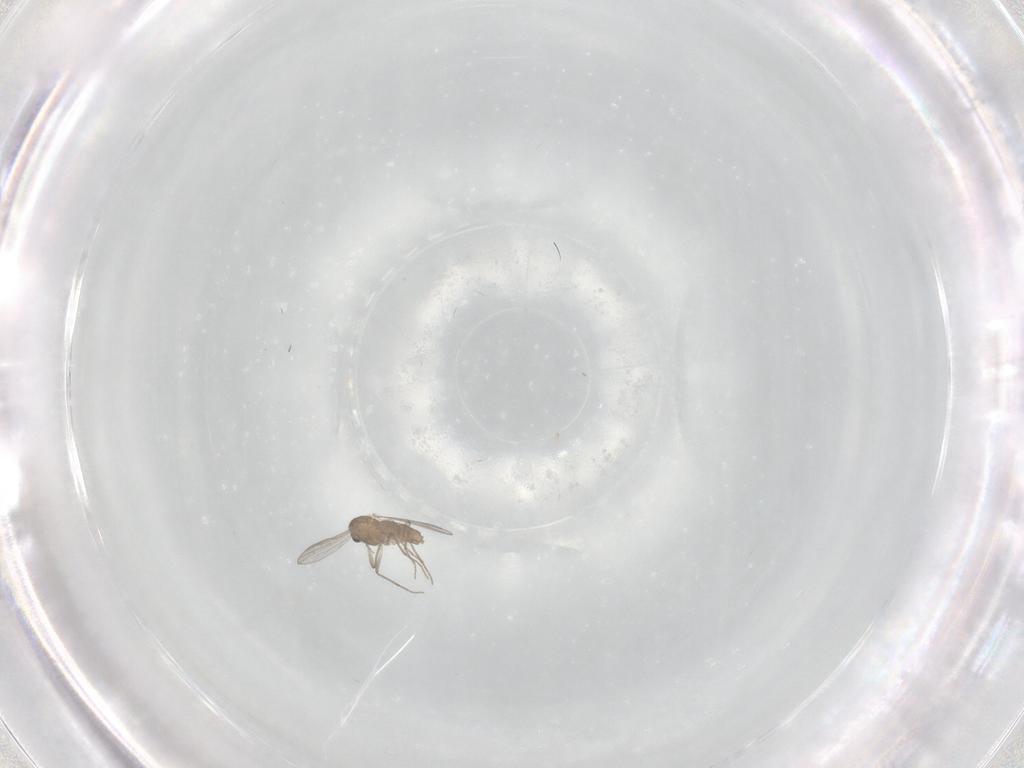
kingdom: Animalia
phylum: Arthropoda
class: Insecta
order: Diptera
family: Chironomidae
